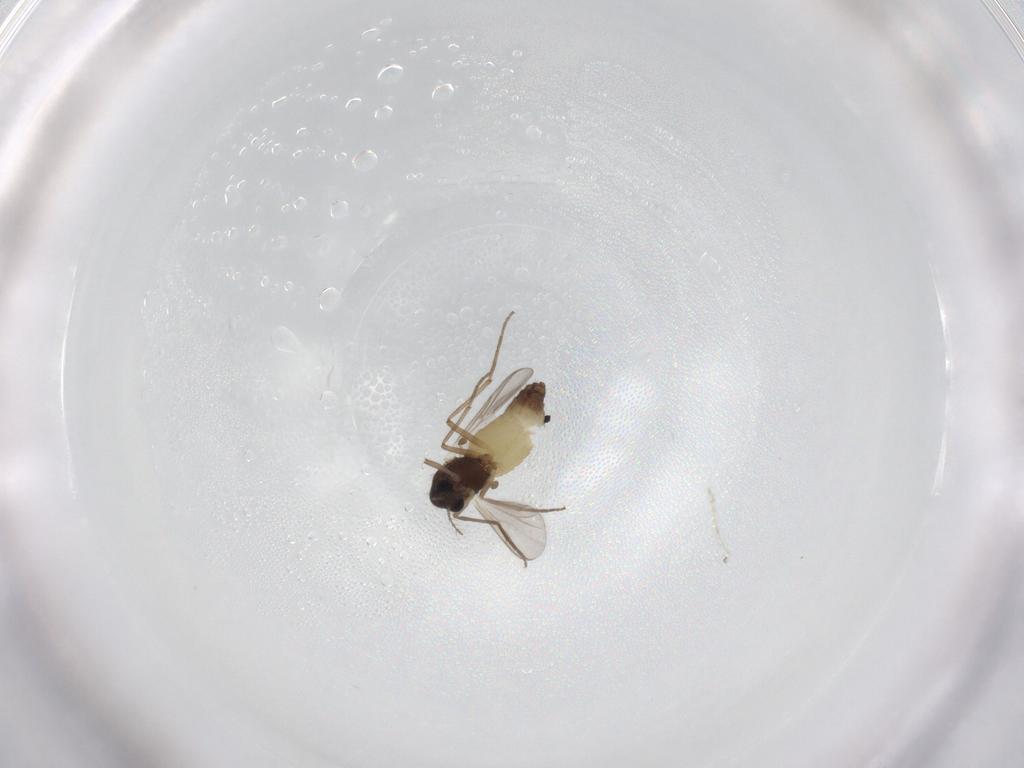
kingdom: Animalia
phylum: Arthropoda
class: Insecta
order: Diptera
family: Chironomidae
